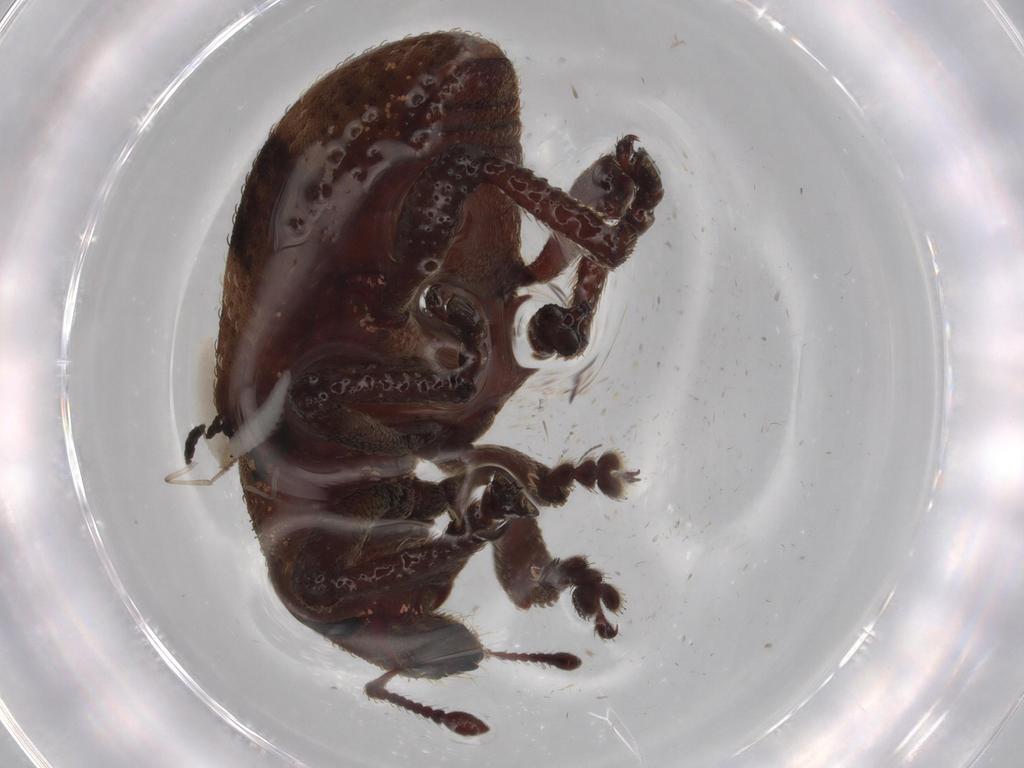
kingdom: Animalia
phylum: Arthropoda
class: Insecta
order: Coleoptera
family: Curculionidae
